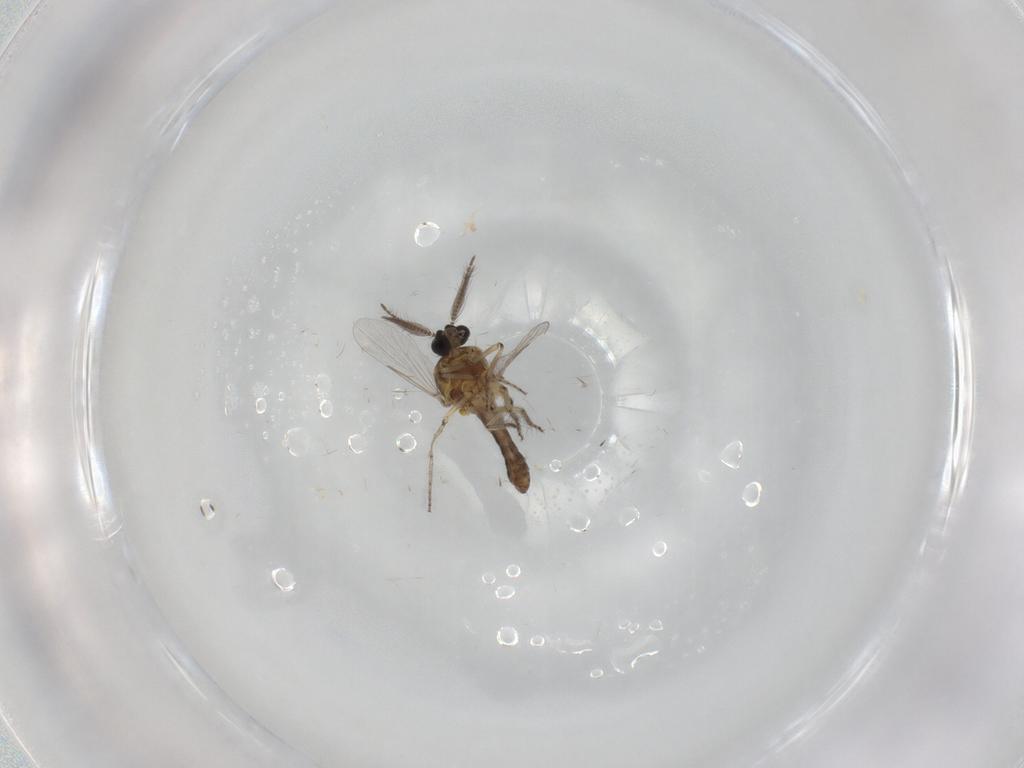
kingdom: Animalia
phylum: Arthropoda
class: Insecta
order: Diptera
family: Ceratopogonidae
